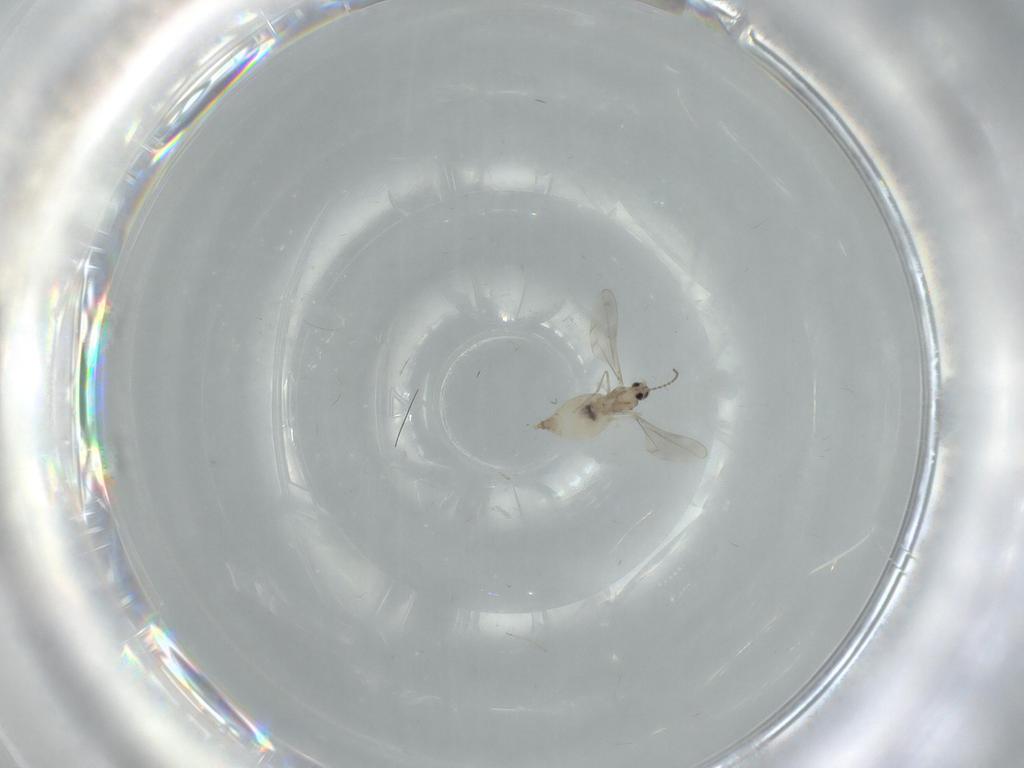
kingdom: Animalia
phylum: Arthropoda
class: Insecta
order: Diptera
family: Cecidomyiidae
